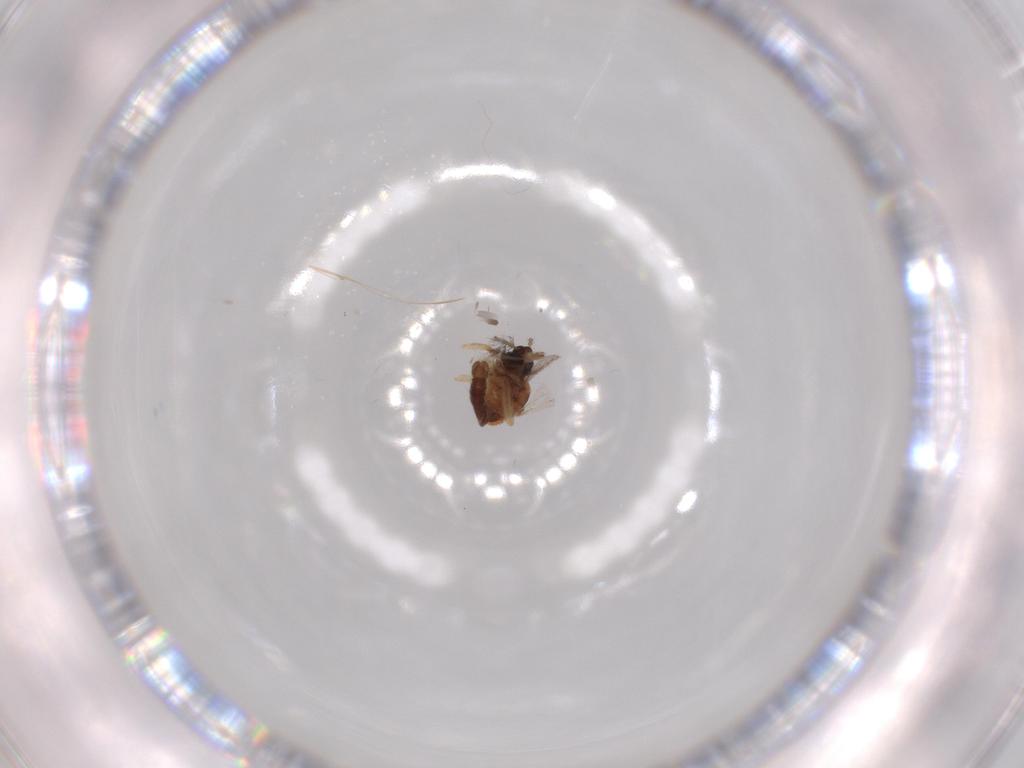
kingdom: Animalia
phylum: Arthropoda
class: Insecta
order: Diptera
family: Ceratopogonidae
